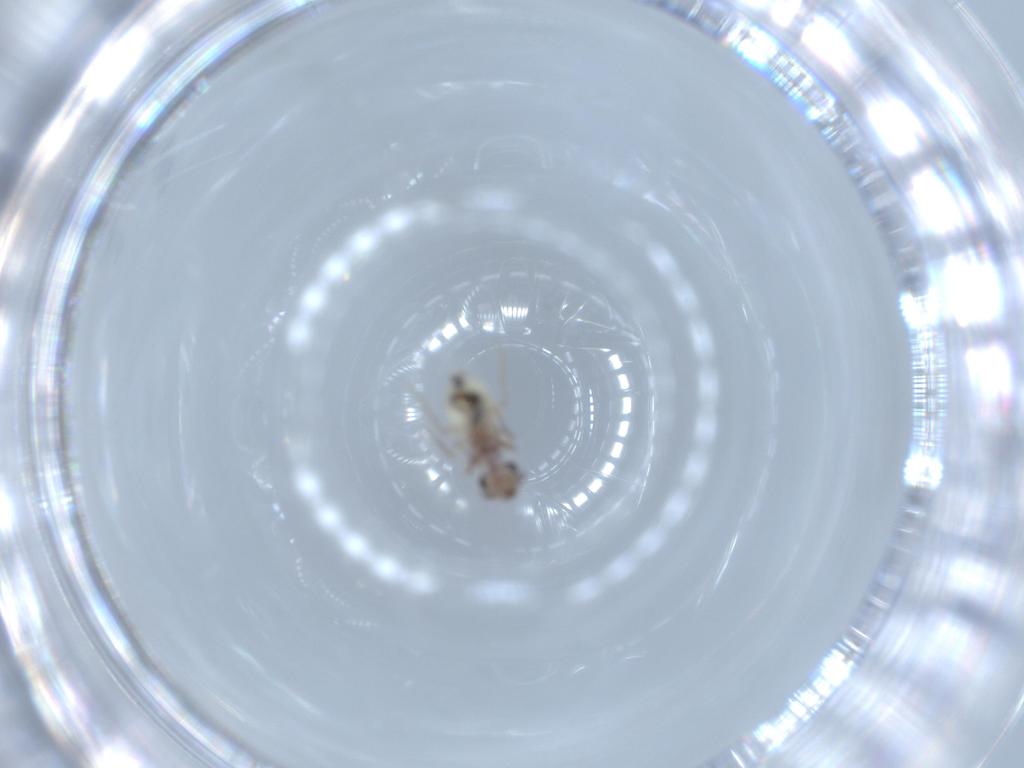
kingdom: Animalia
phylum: Arthropoda
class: Insecta
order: Psocodea
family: Lepidopsocidae
